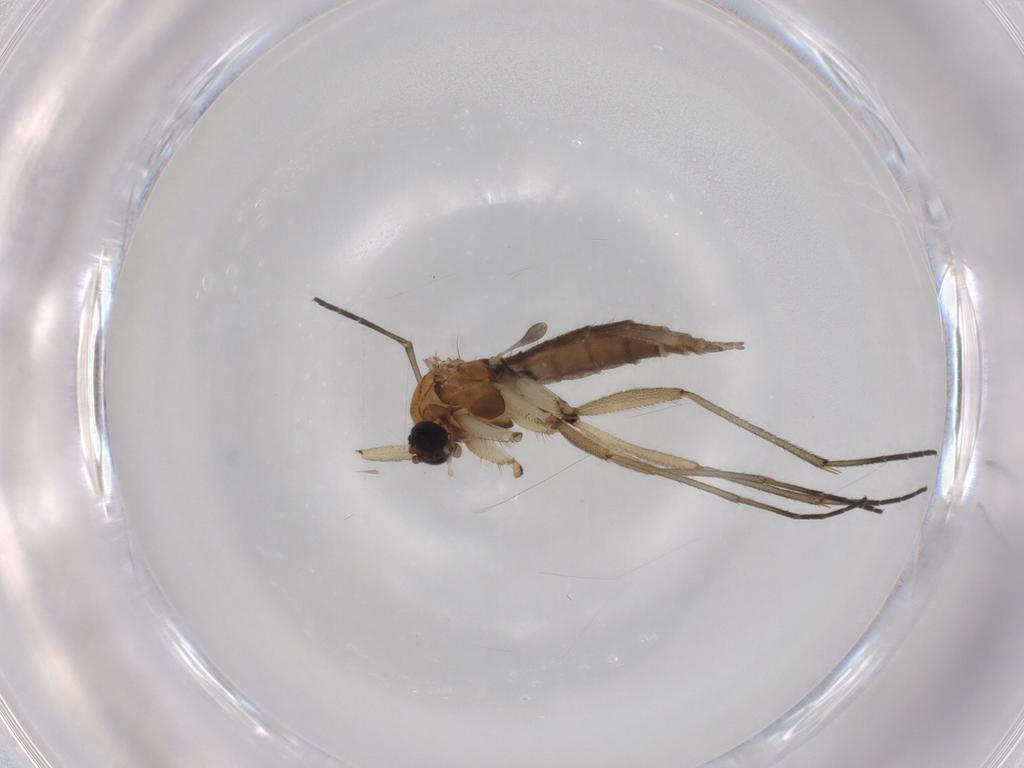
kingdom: Animalia
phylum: Arthropoda
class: Insecta
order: Diptera
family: Sciaridae
